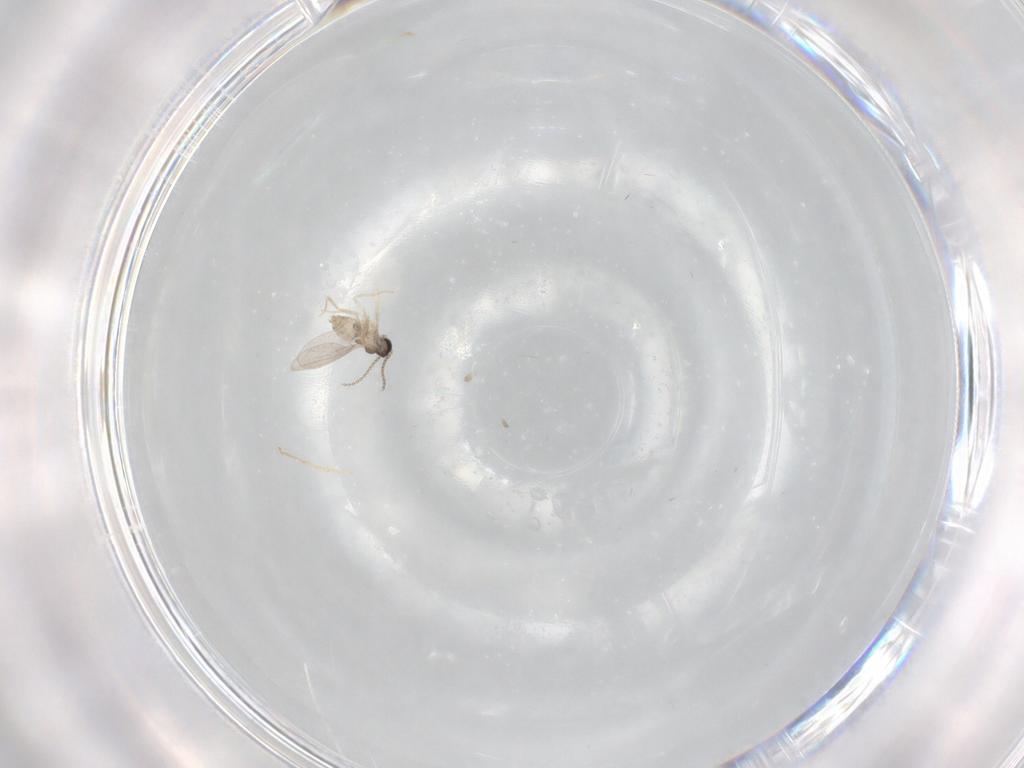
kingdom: Animalia
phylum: Arthropoda
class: Insecta
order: Diptera
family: Cecidomyiidae
